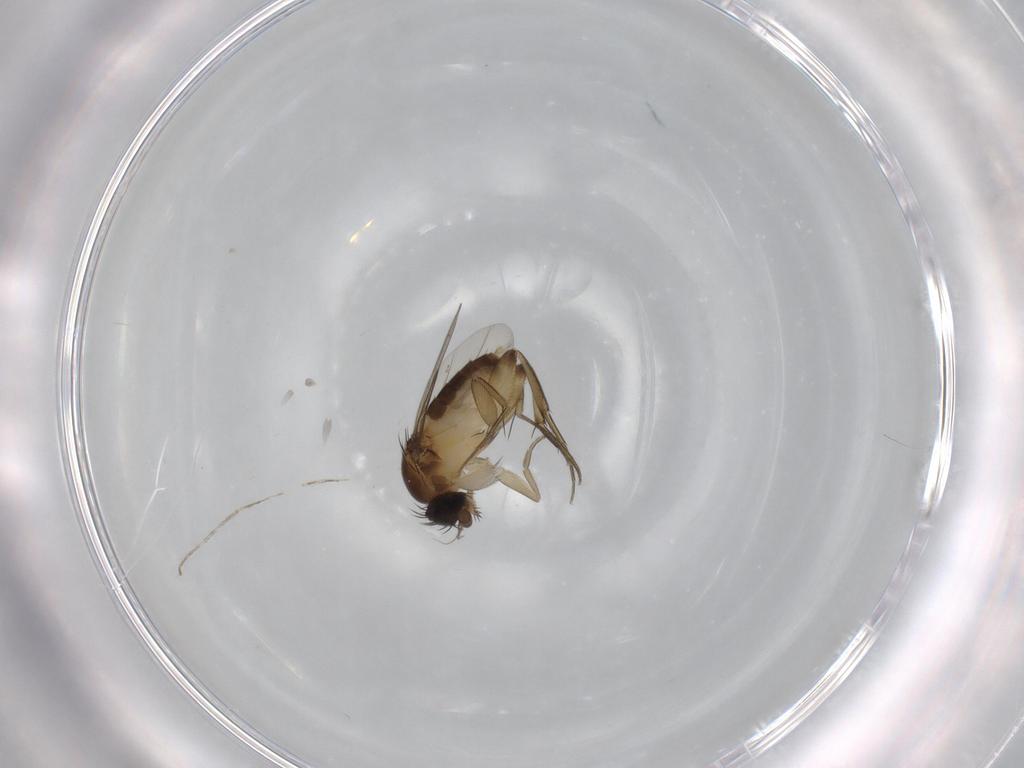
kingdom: Animalia
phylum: Arthropoda
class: Insecta
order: Diptera
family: Phoridae
